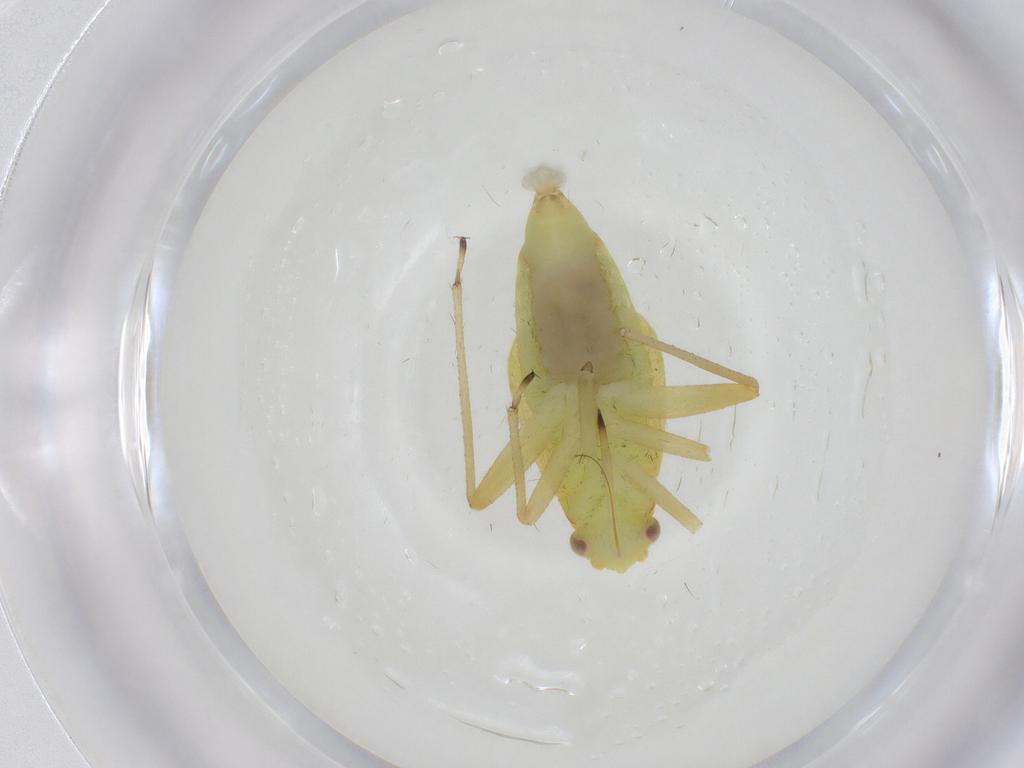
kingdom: Animalia
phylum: Arthropoda
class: Insecta
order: Hemiptera
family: Miridae
